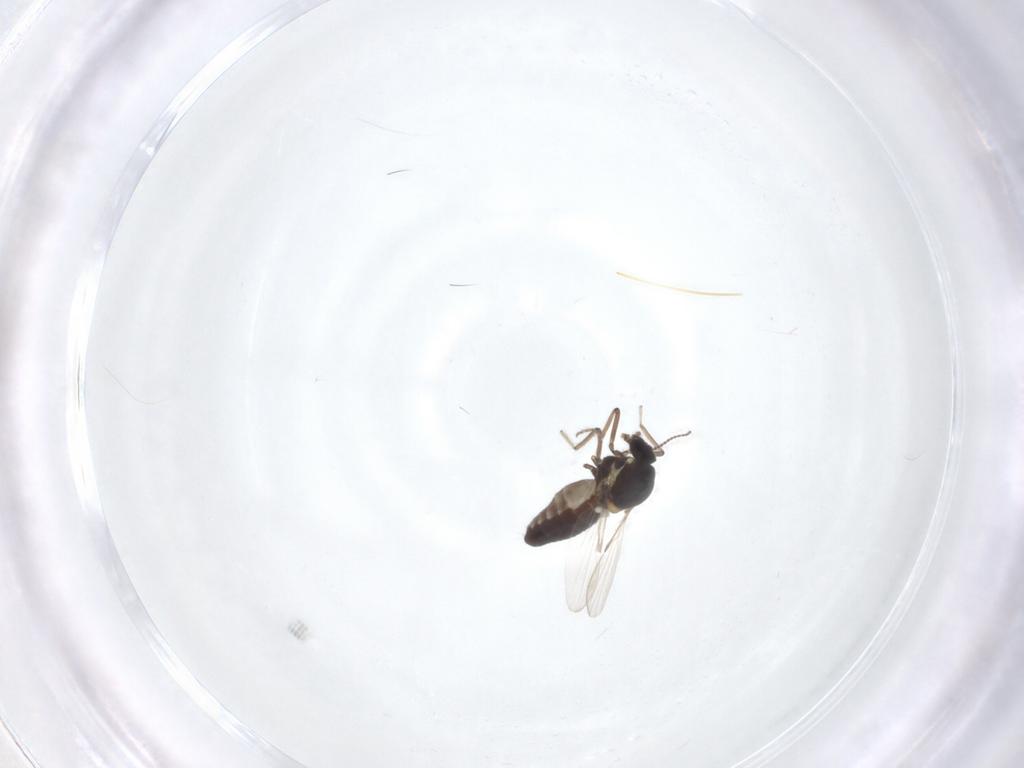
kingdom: Animalia
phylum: Arthropoda
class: Insecta
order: Diptera
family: Ceratopogonidae
